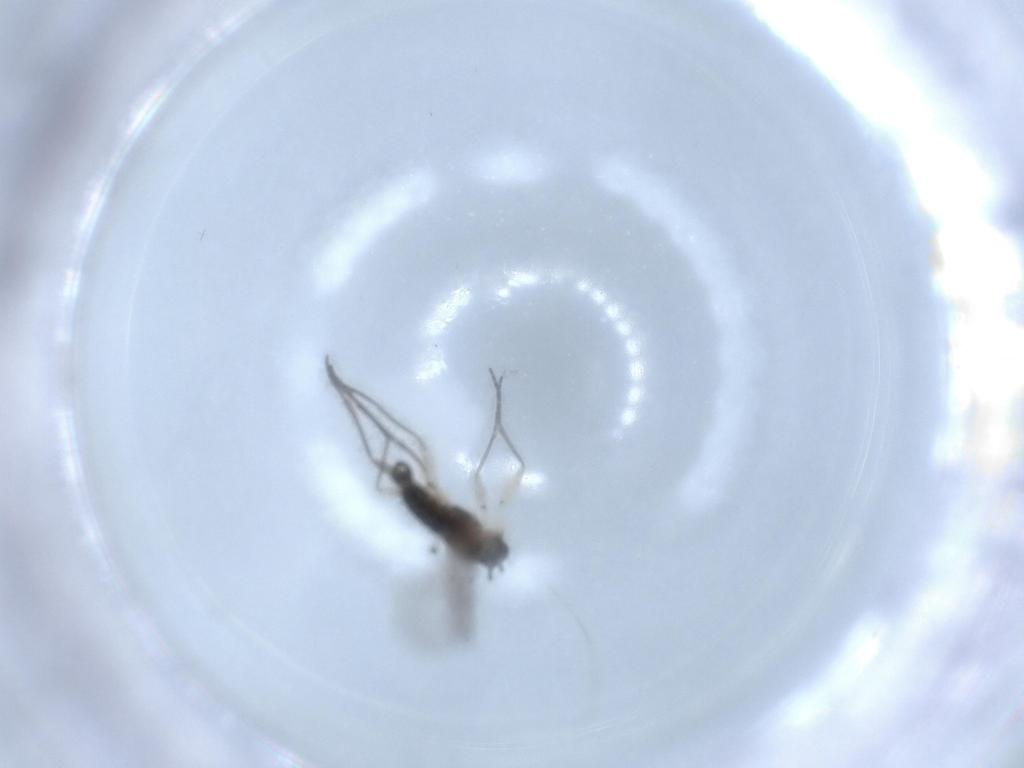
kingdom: Animalia
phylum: Arthropoda
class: Insecta
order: Diptera
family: Sciaridae
